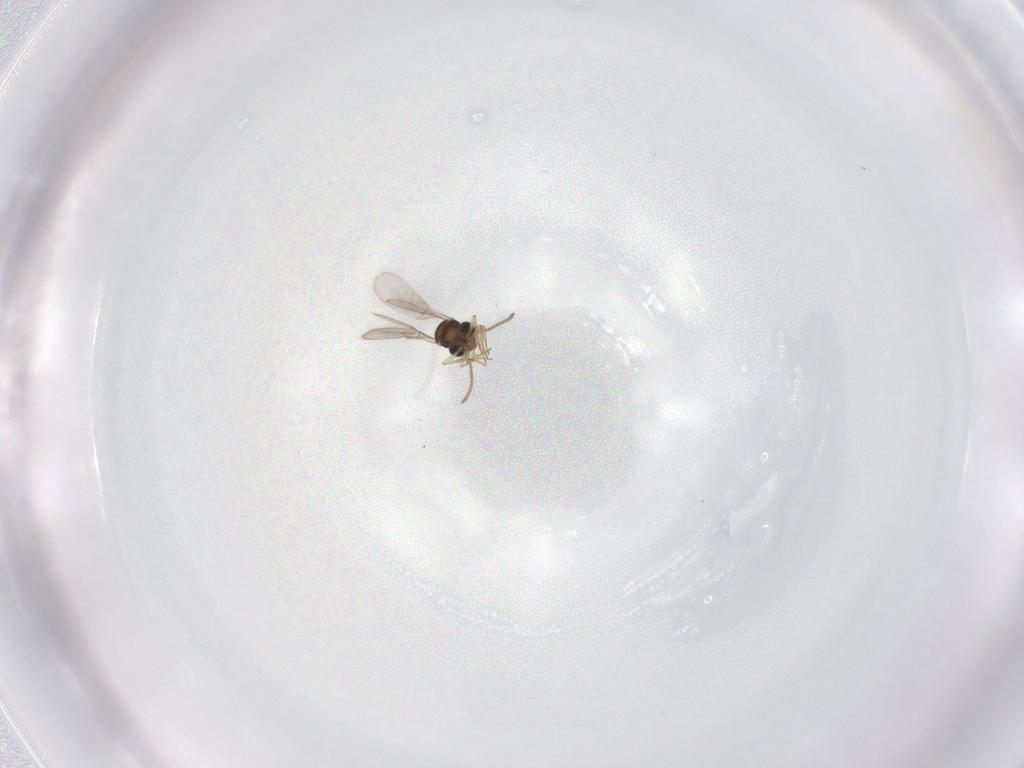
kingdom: Animalia
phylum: Arthropoda
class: Insecta
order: Hymenoptera
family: Scelionidae
